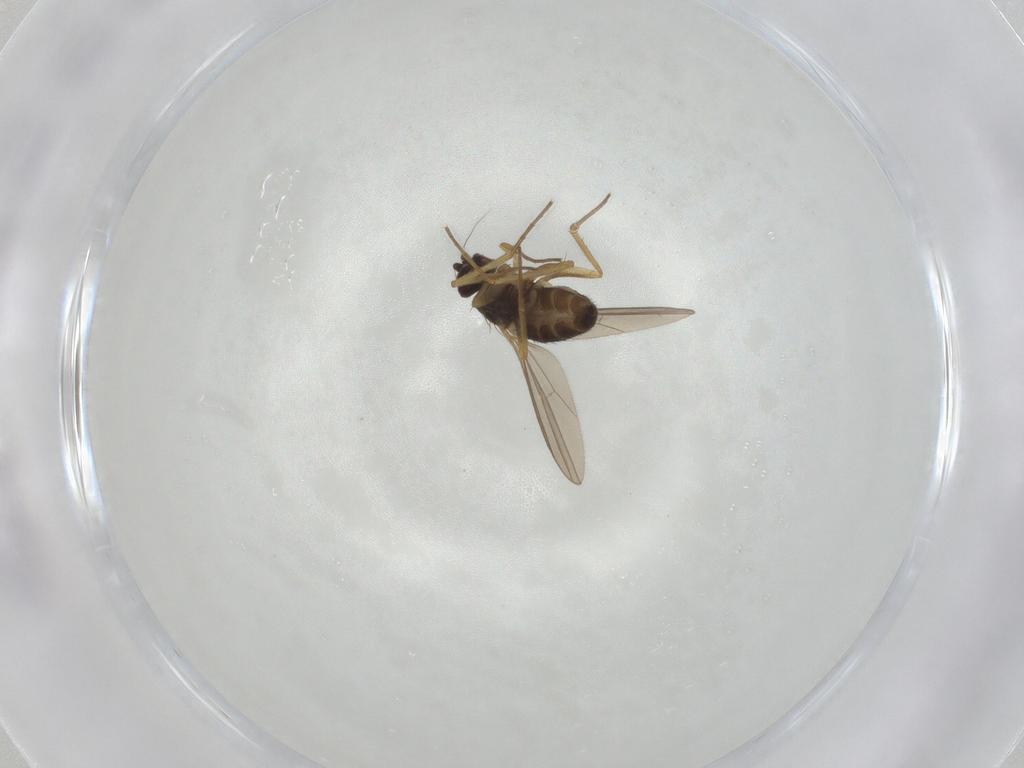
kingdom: Animalia
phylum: Arthropoda
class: Insecta
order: Diptera
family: Dolichopodidae
